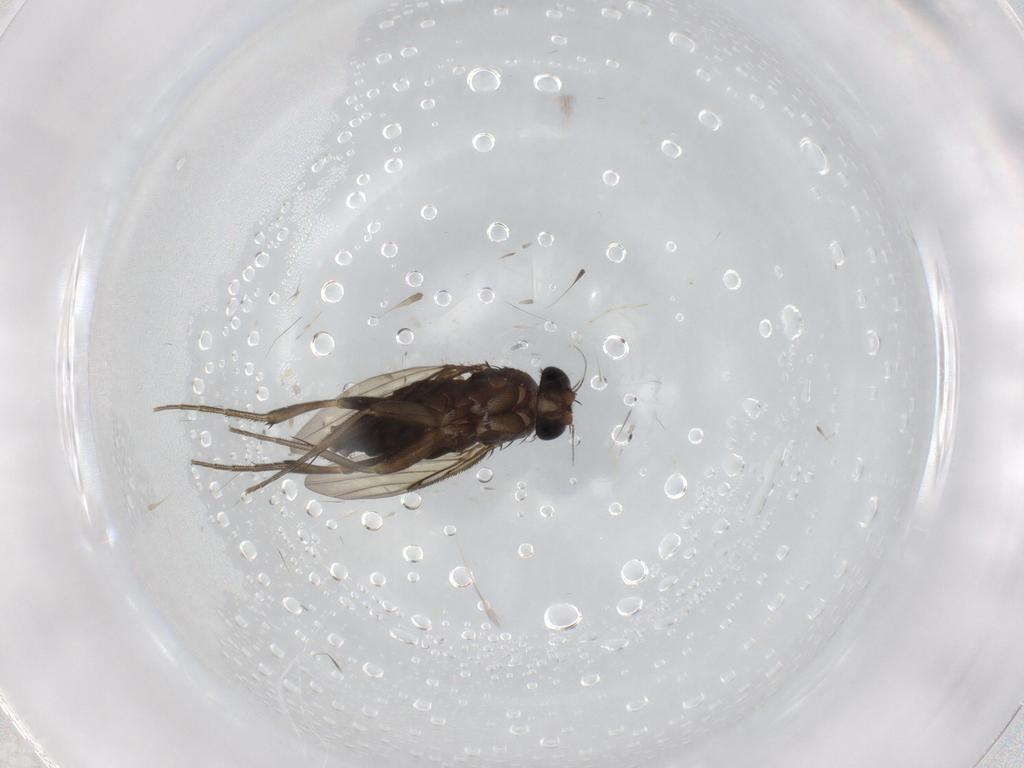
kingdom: Animalia
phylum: Arthropoda
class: Insecta
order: Diptera
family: Phoridae
